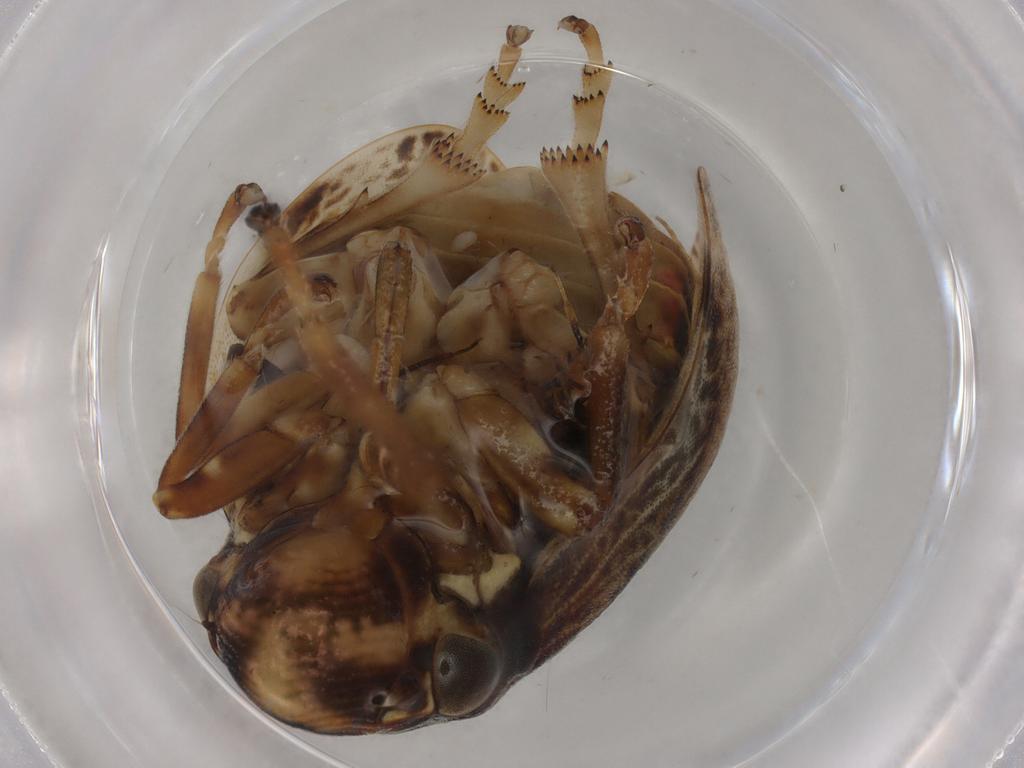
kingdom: Animalia
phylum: Arthropoda
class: Insecta
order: Hemiptera
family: Aphrophoridae
